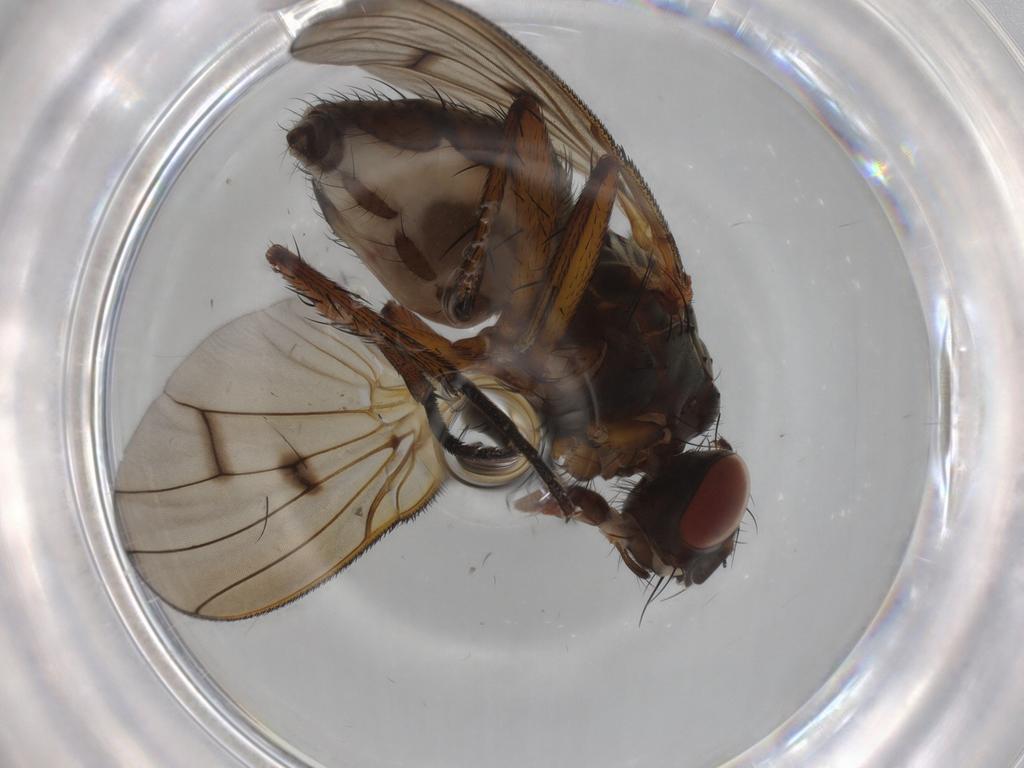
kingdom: Animalia
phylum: Arthropoda
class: Insecta
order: Diptera
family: Anthomyiidae
